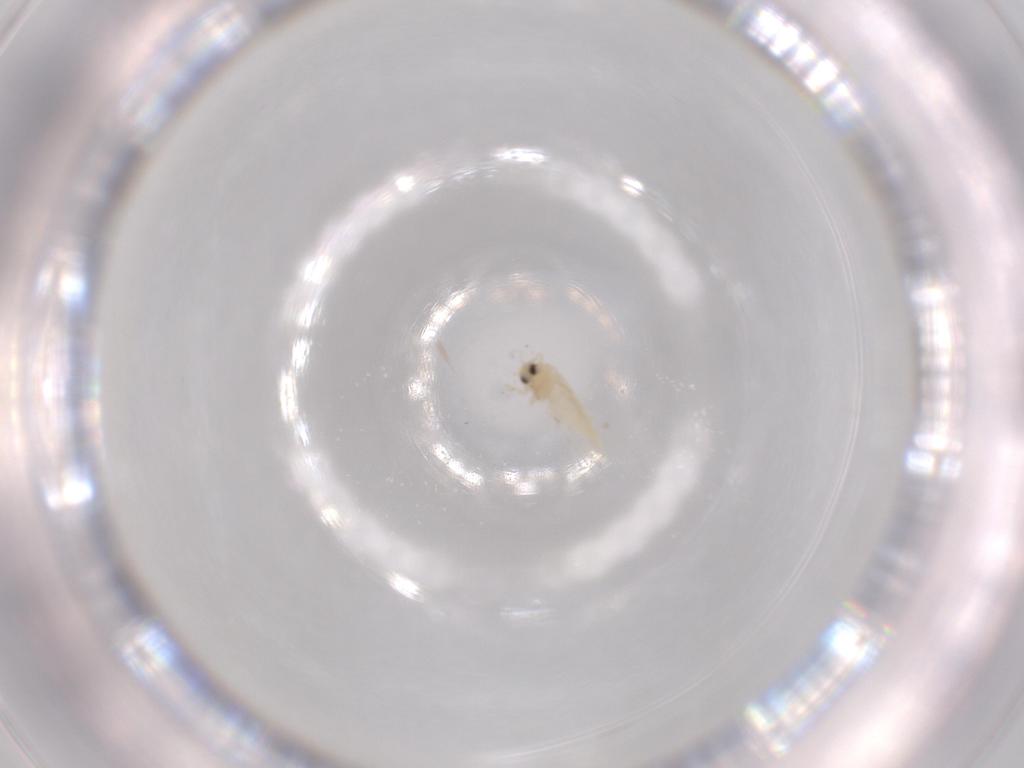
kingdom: Animalia
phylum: Arthropoda
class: Insecta
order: Hemiptera
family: Aleyrodidae
